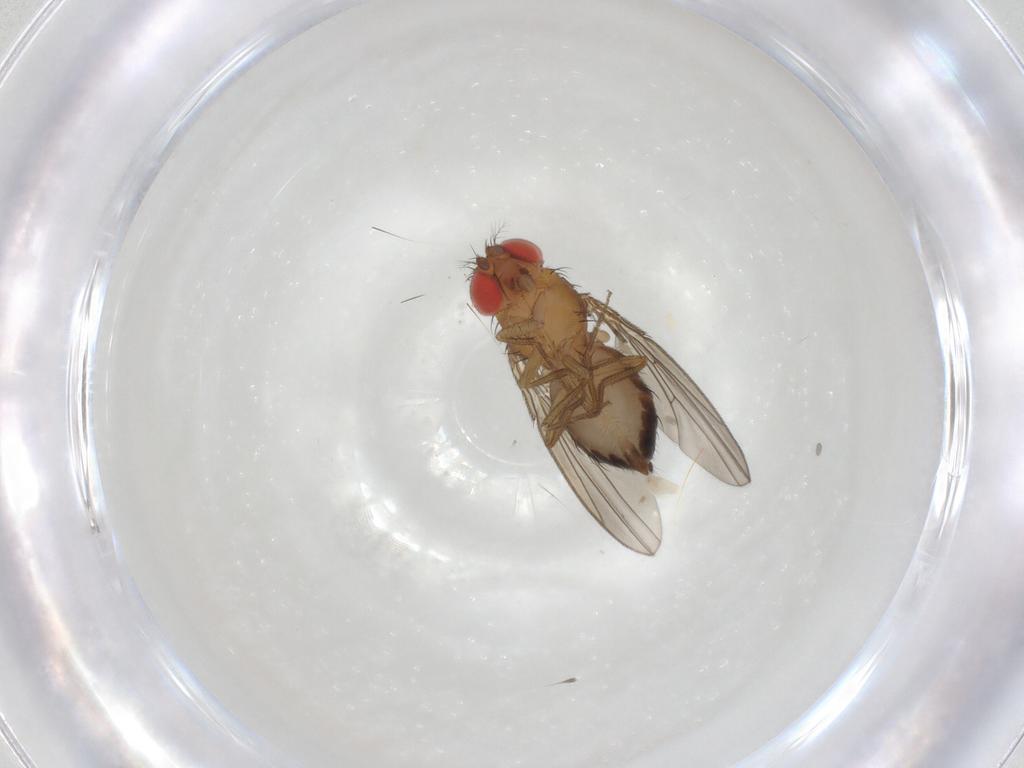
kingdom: Animalia
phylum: Arthropoda
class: Insecta
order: Diptera
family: Drosophilidae
